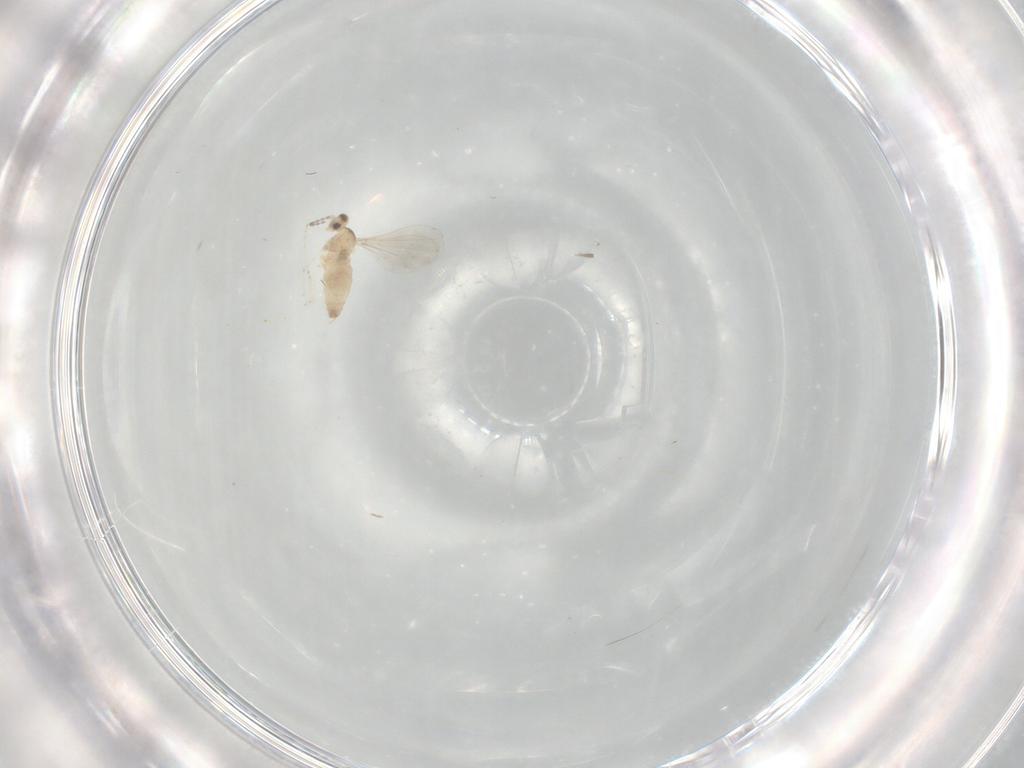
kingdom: Animalia
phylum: Arthropoda
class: Insecta
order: Diptera
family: Cecidomyiidae
